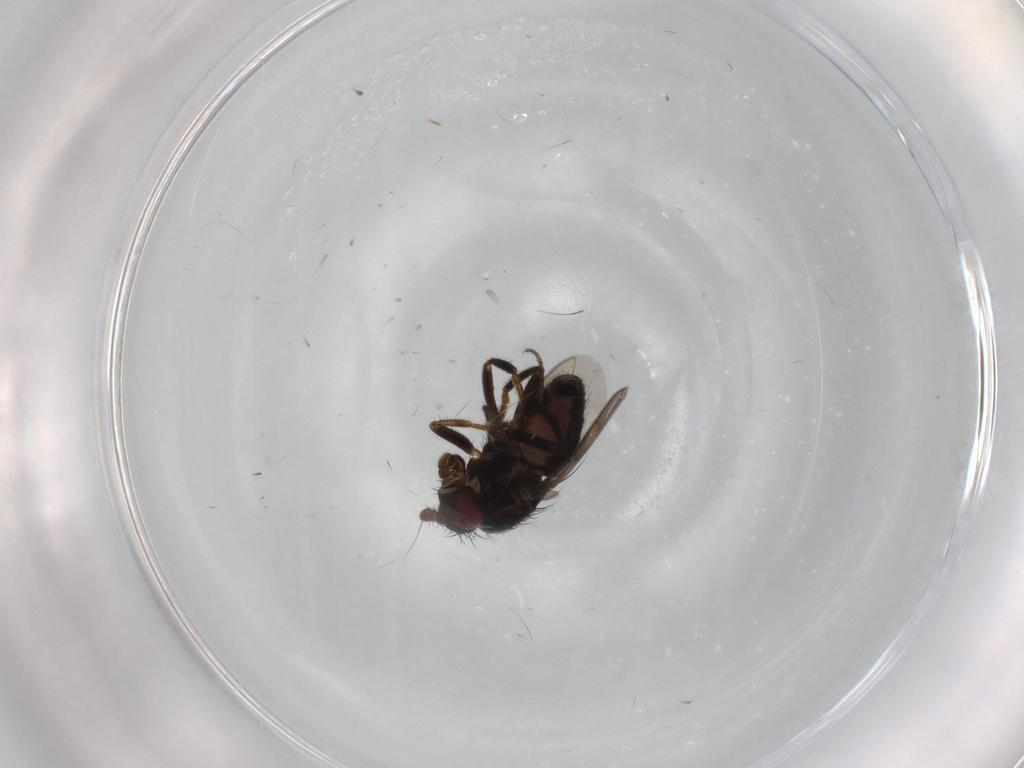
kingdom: Animalia
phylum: Arthropoda
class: Insecta
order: Diptera
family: Sphaeroceridae
